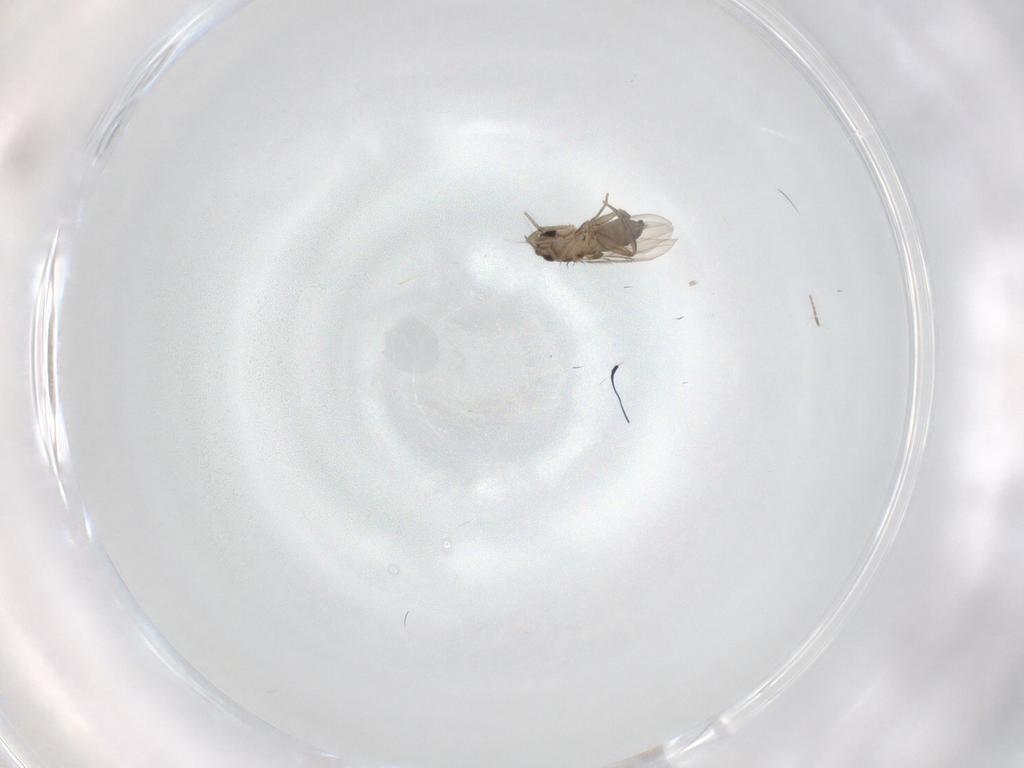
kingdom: Animalia
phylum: Arthropoda
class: Insecta
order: Diptera
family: Phoridae
